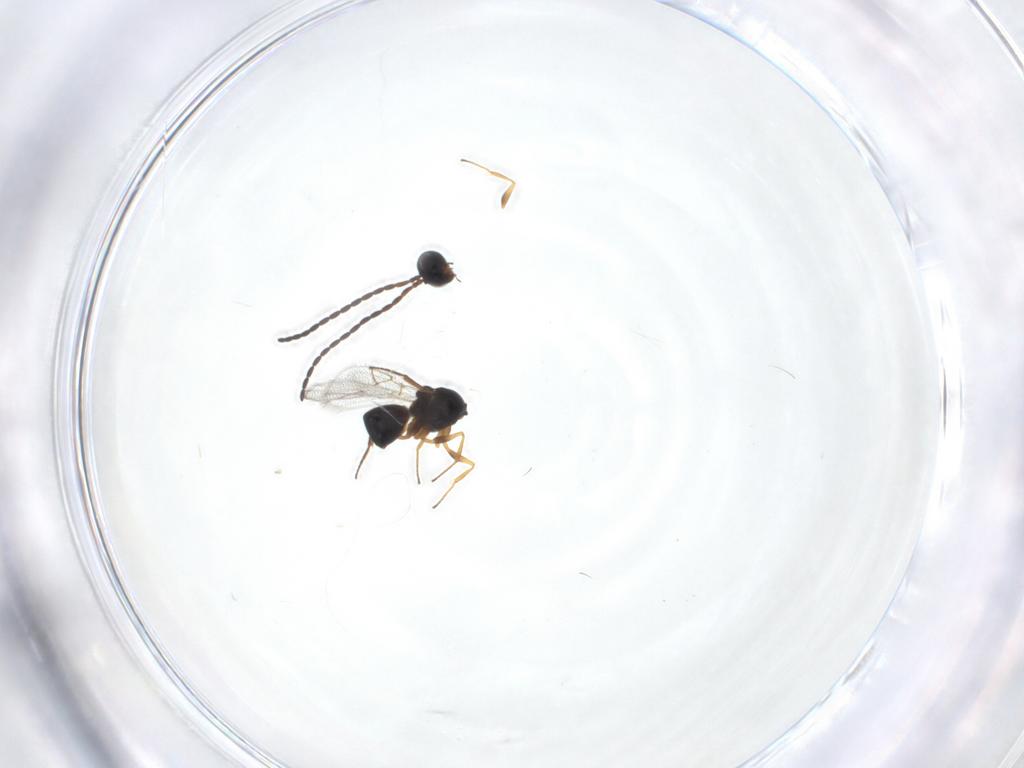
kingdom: Animalia
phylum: Arthropoda
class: Insecta
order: Hymenoptera
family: Figitidae
